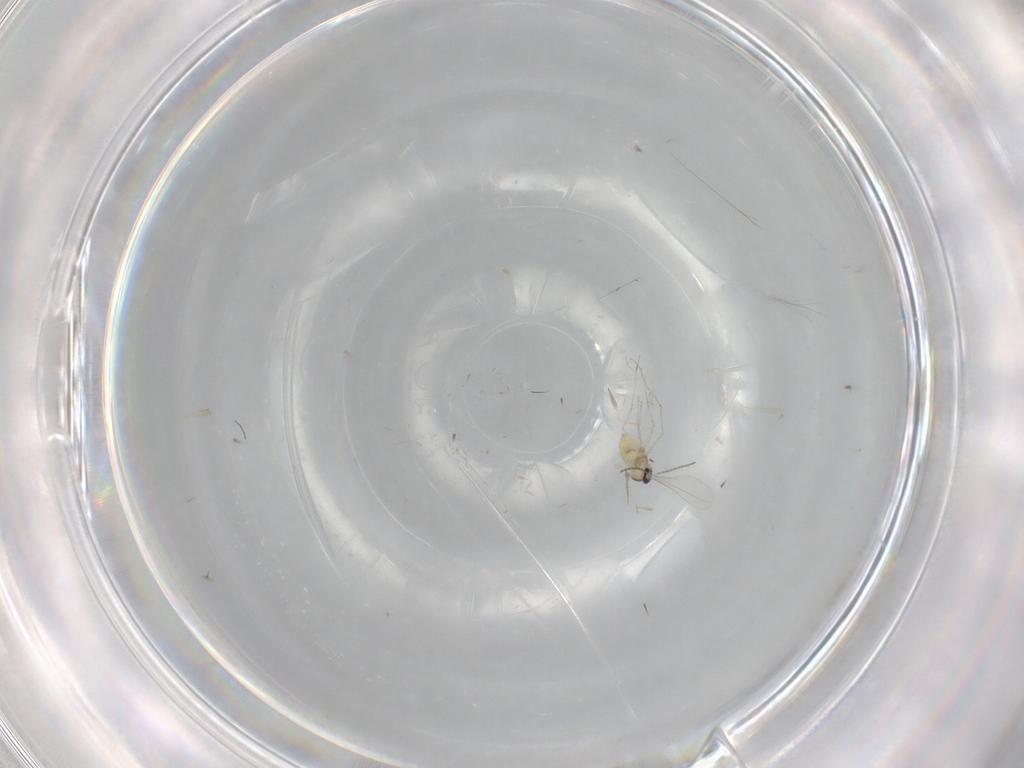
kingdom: Animalia
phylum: Arthropoda
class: Insecta
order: Diptera
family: Cecidomyiidae
